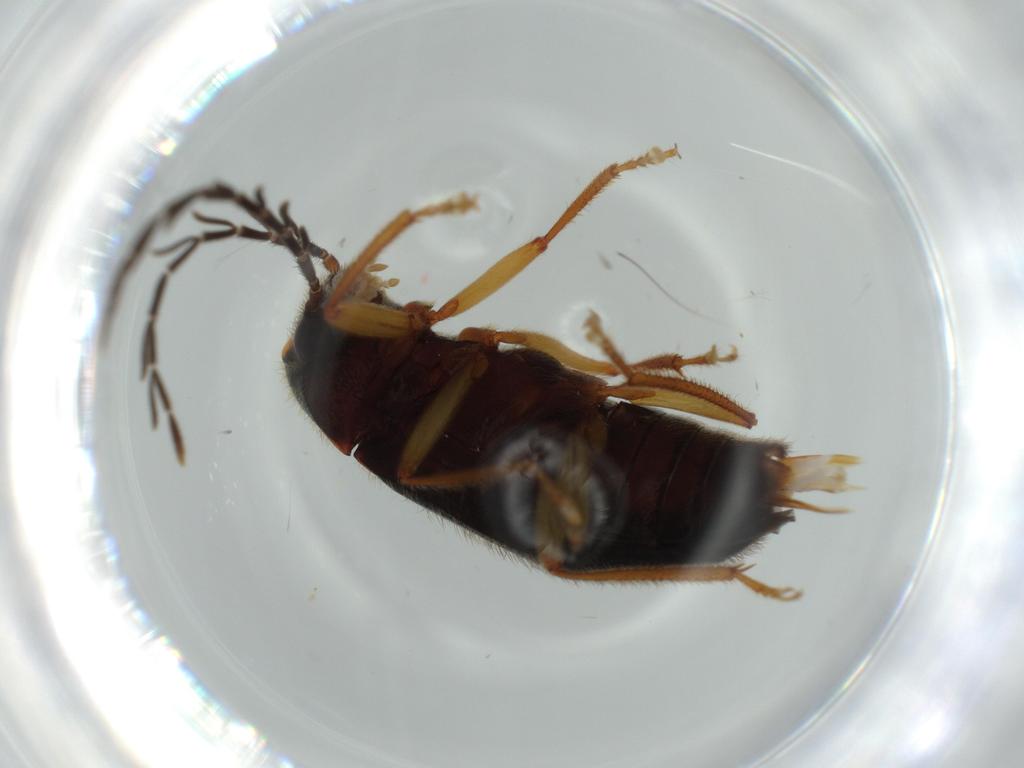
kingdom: Animalia
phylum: Arthropoda
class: Insecta
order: Coleoptera
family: Ptilodactylidae
